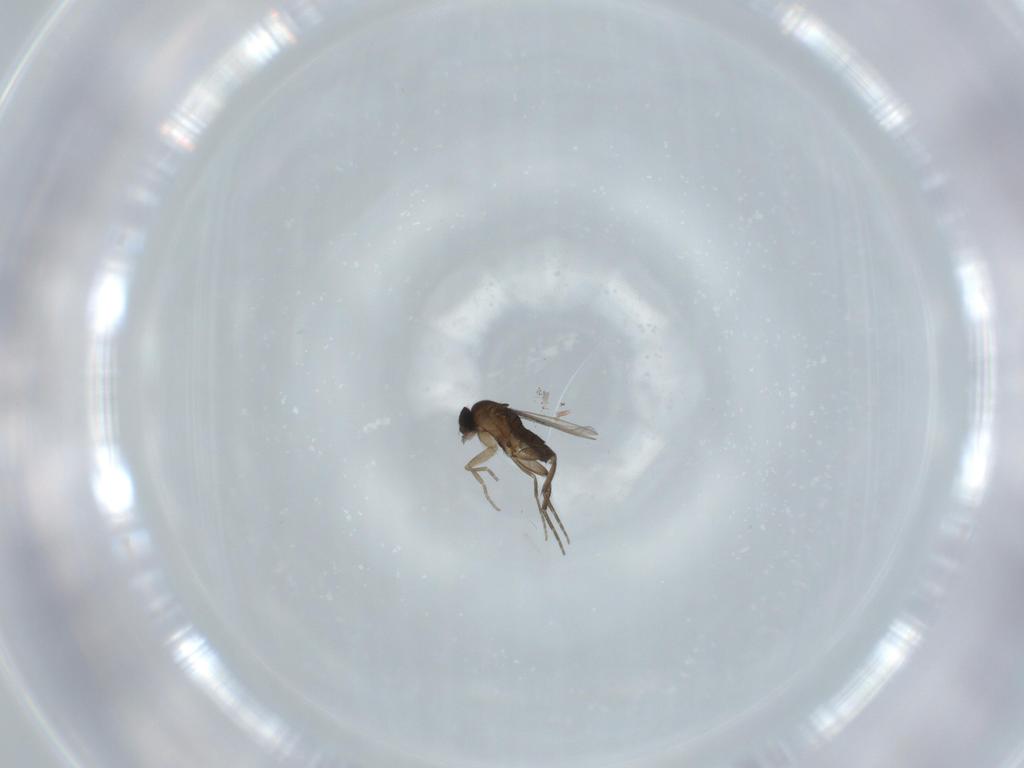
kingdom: Animalia
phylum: Arthropoda
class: Insecta
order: Diptera
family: Phoridae
